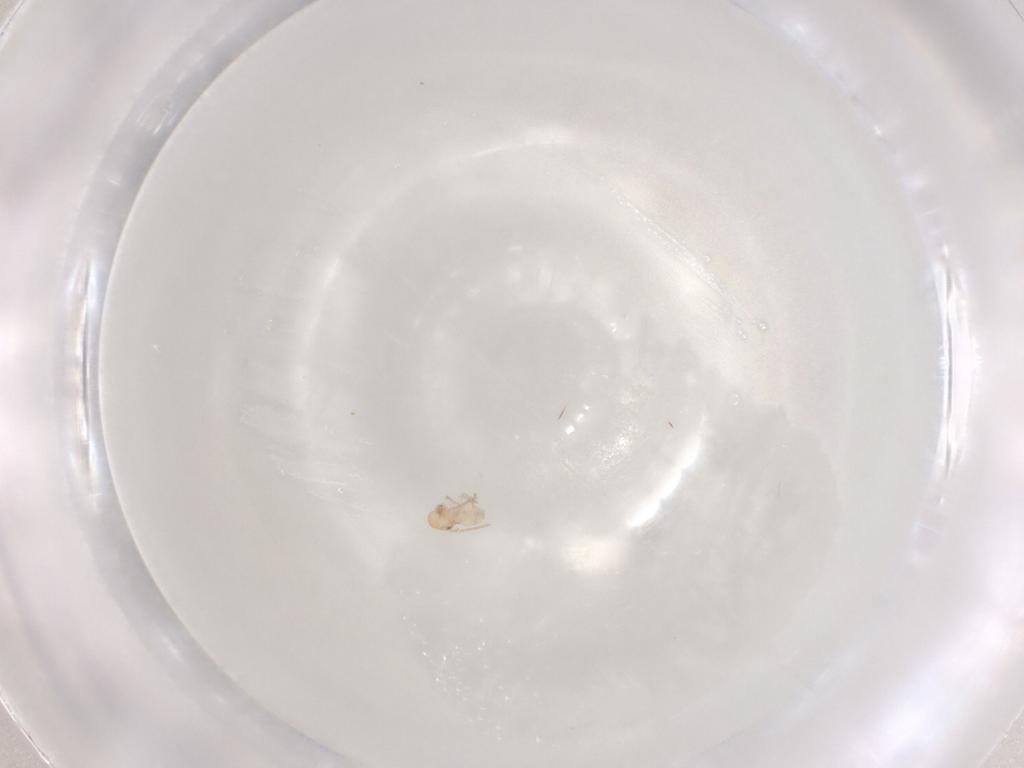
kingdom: Animalia
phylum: Arthropoda
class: Insecta
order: Psocodea
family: Philotarsidae
